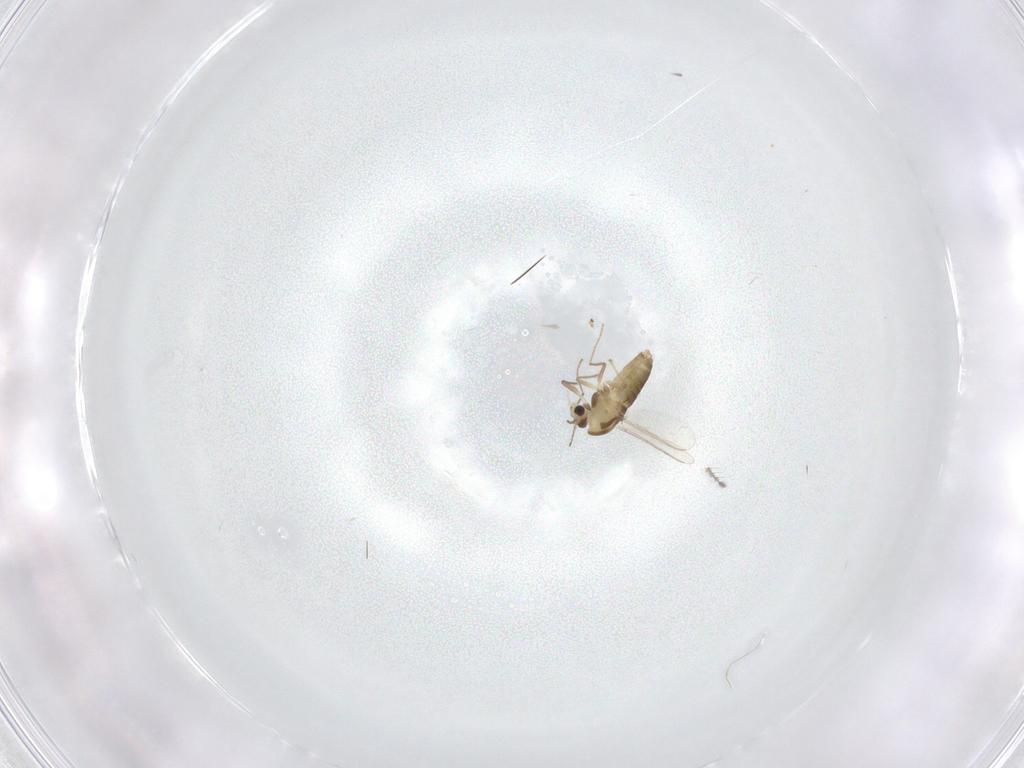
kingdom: Animalia
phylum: Arthropoda
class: Insecta
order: Diptera
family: Chironomidae
